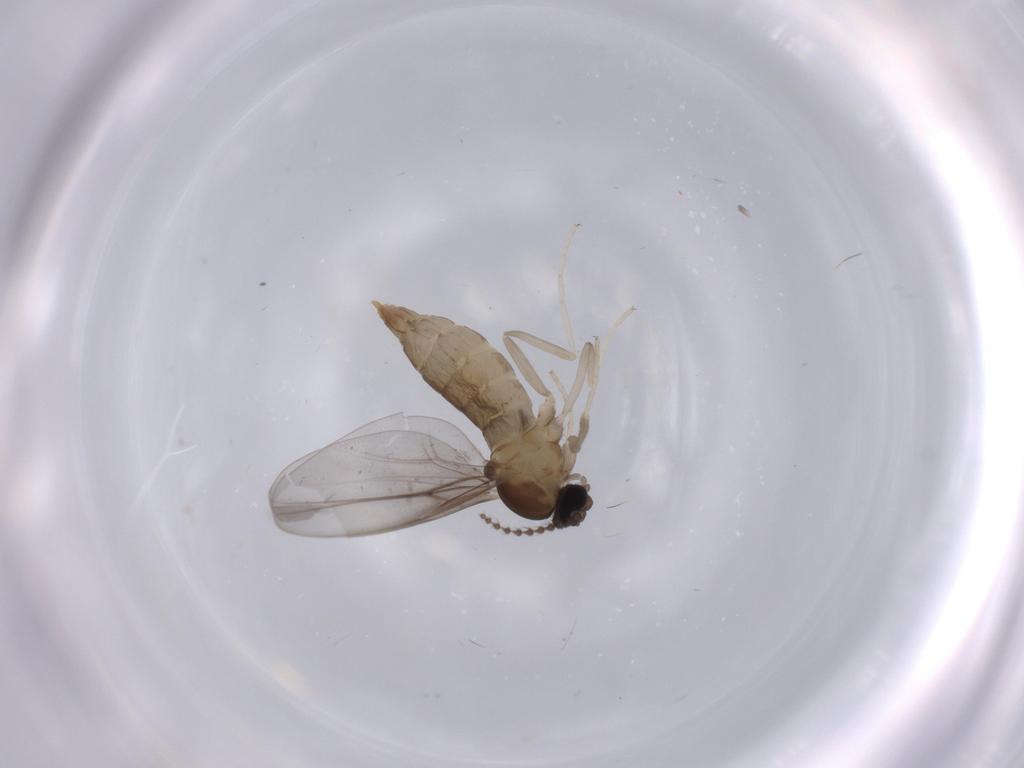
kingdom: Animalia
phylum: Arthropoda
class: Insecta
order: Diptera
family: Cecidomyiidae
